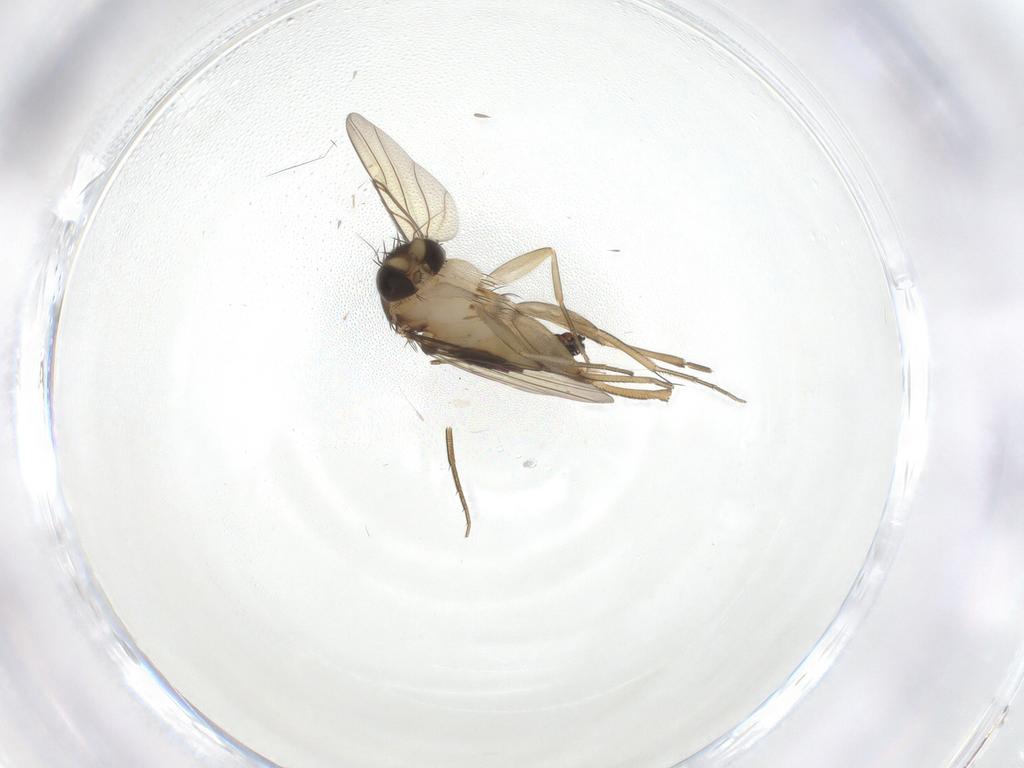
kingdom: Animalia
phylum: Arthropoda
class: Insecta
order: Diptera
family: Phoridae
